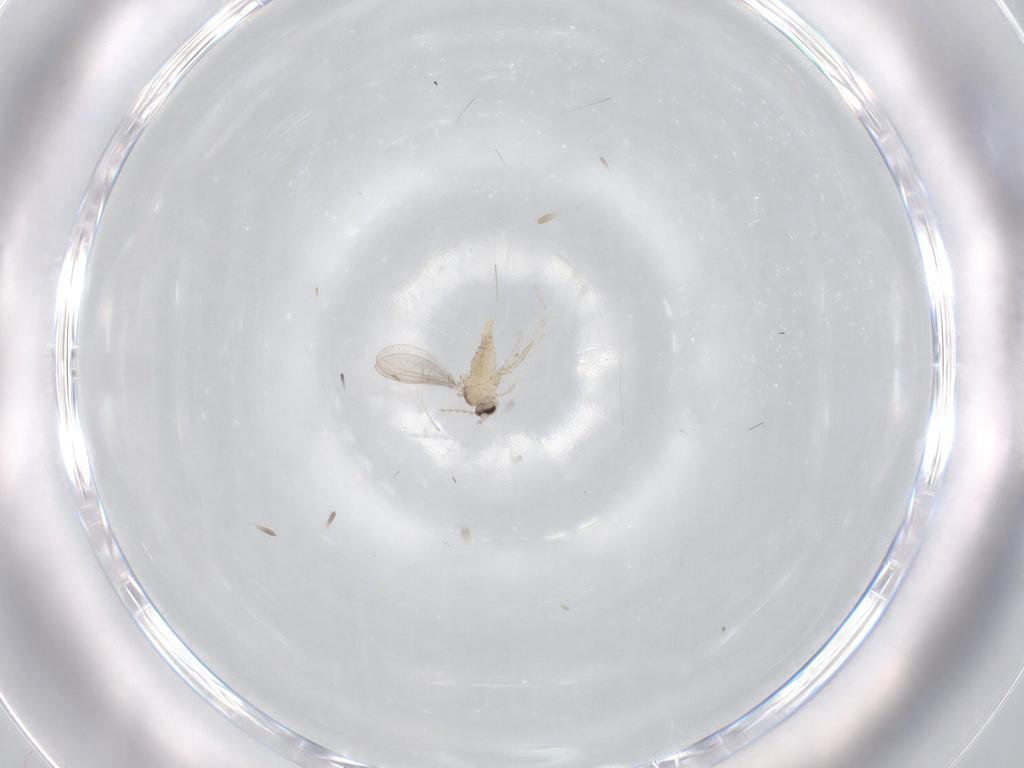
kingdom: Animalia
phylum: Arthropoda
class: Insecta
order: Diptera
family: Cecidomyiidae
